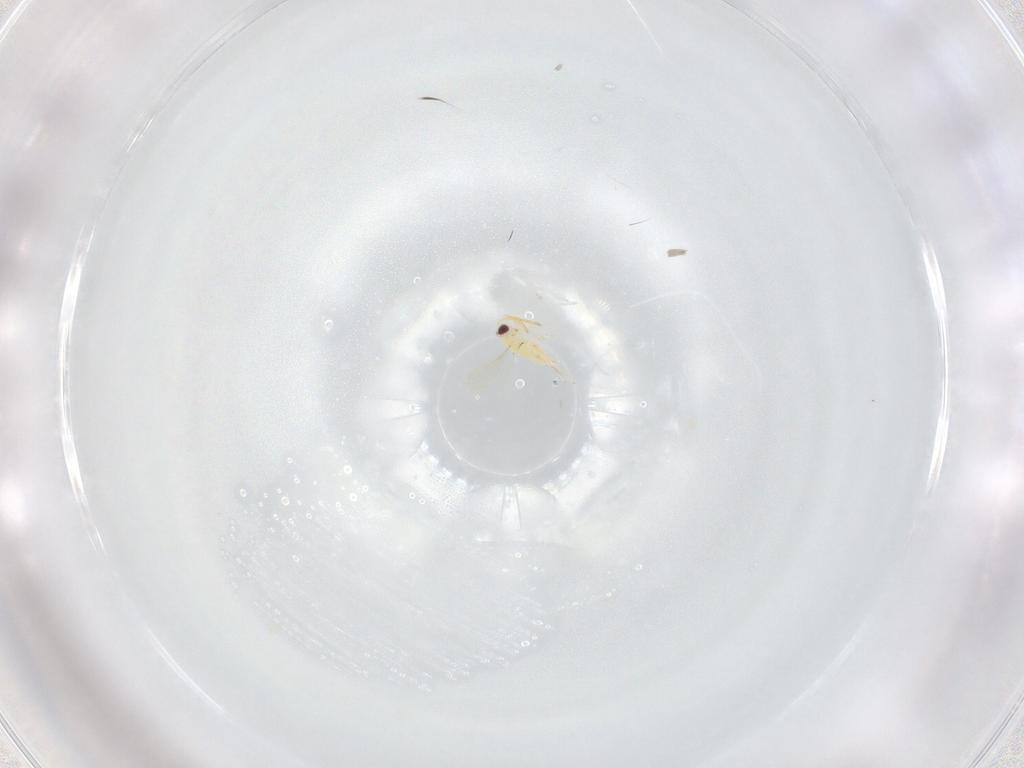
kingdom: Animalia
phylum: Arthropoda
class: Insecta
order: Hymenoptera
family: Aphelinidae
